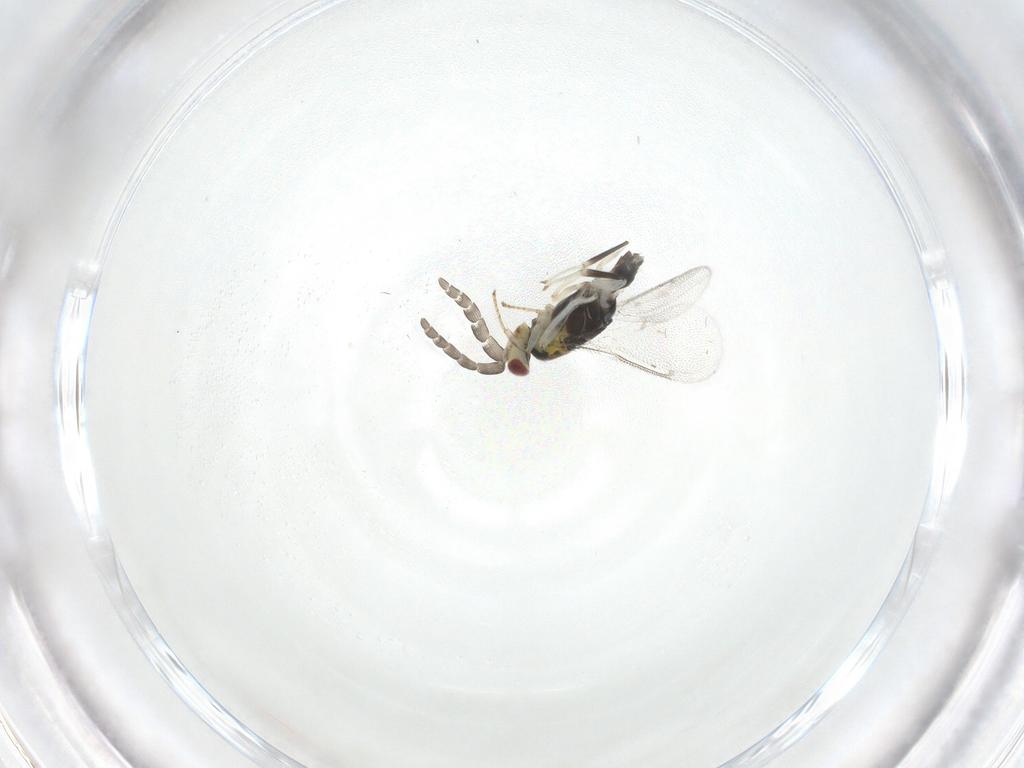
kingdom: Animalia
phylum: Arthropoda
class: Insecta
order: Hymenoptera
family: Aphelinidae
